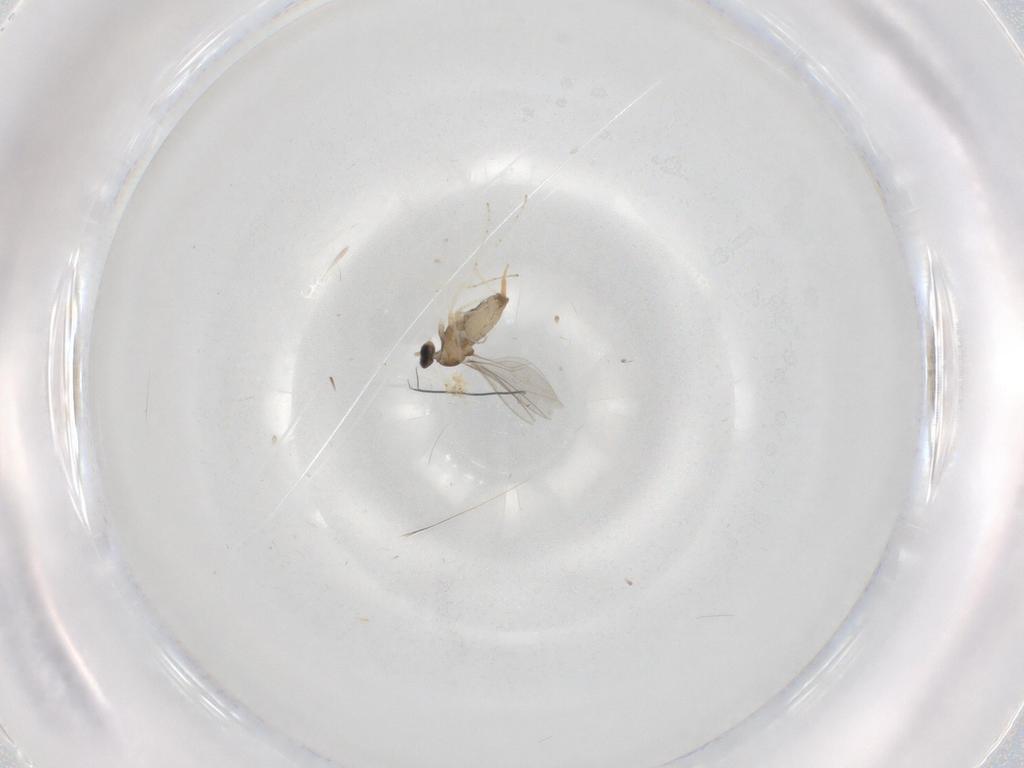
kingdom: Animalia
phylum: Arthropoda
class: Insecta
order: Diptera
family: Cecidomyiidae
